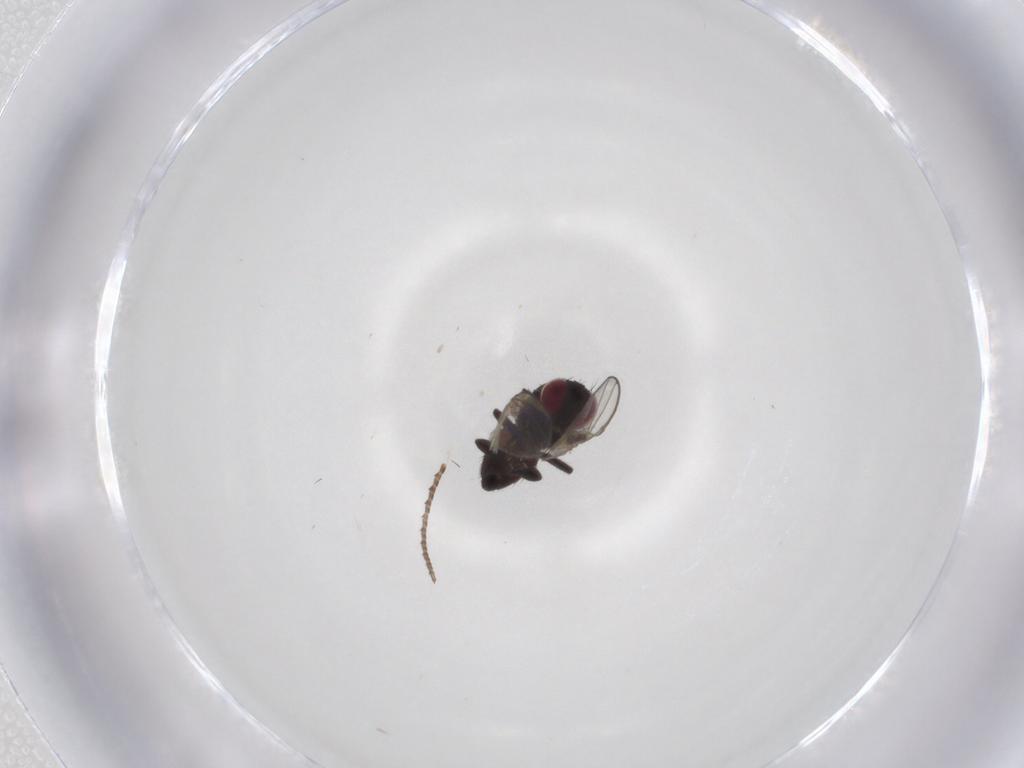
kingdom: Animalia
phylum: Arthropoda
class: Insecta
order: Diptera
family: Agromyzidae
